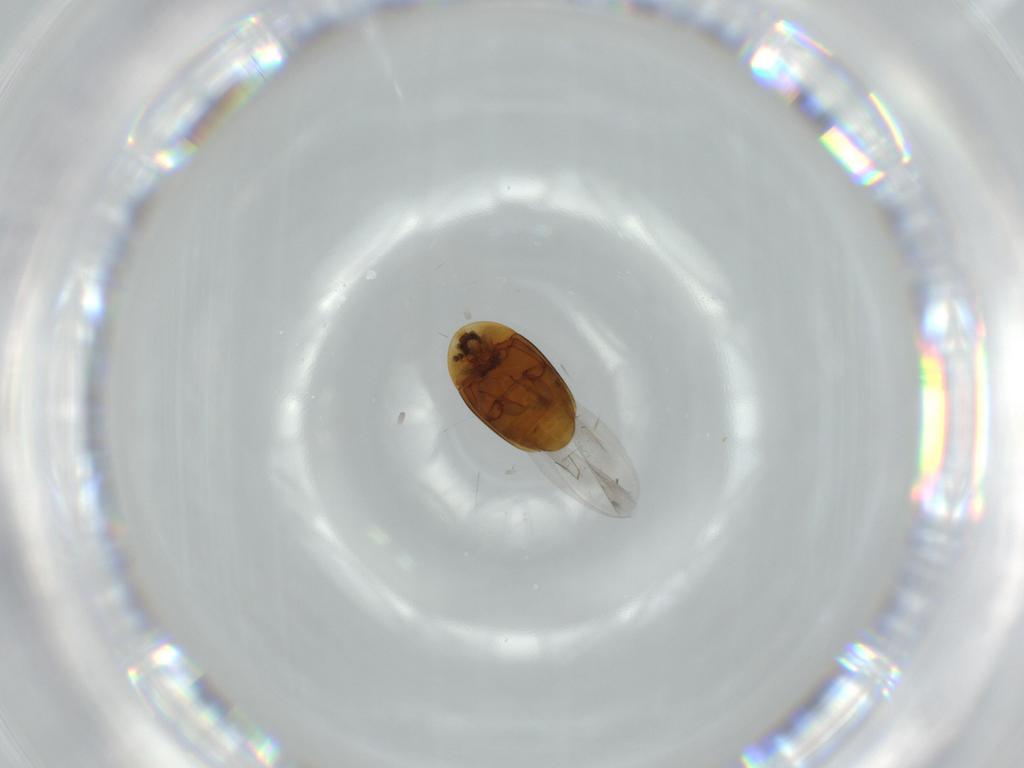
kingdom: Animalia
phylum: Arthropoda
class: Insecta
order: Coleoptera
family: Corylophidae
